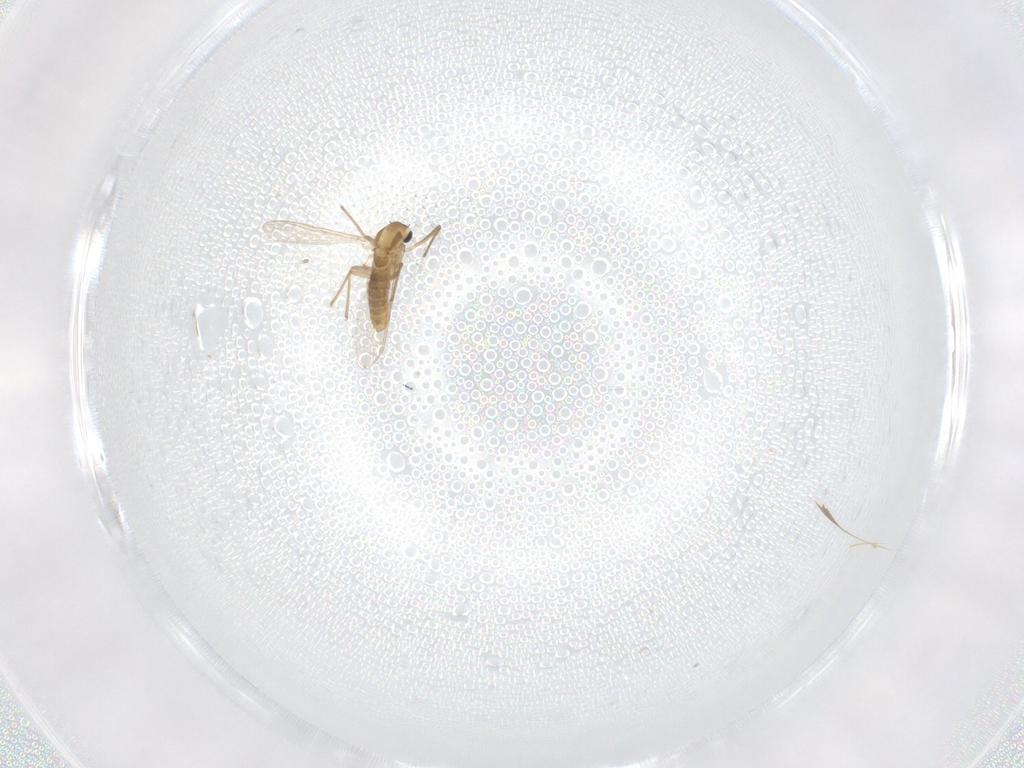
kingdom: Animalia
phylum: Arthropoda
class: Insecta
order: Diptera
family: Chironomidae
